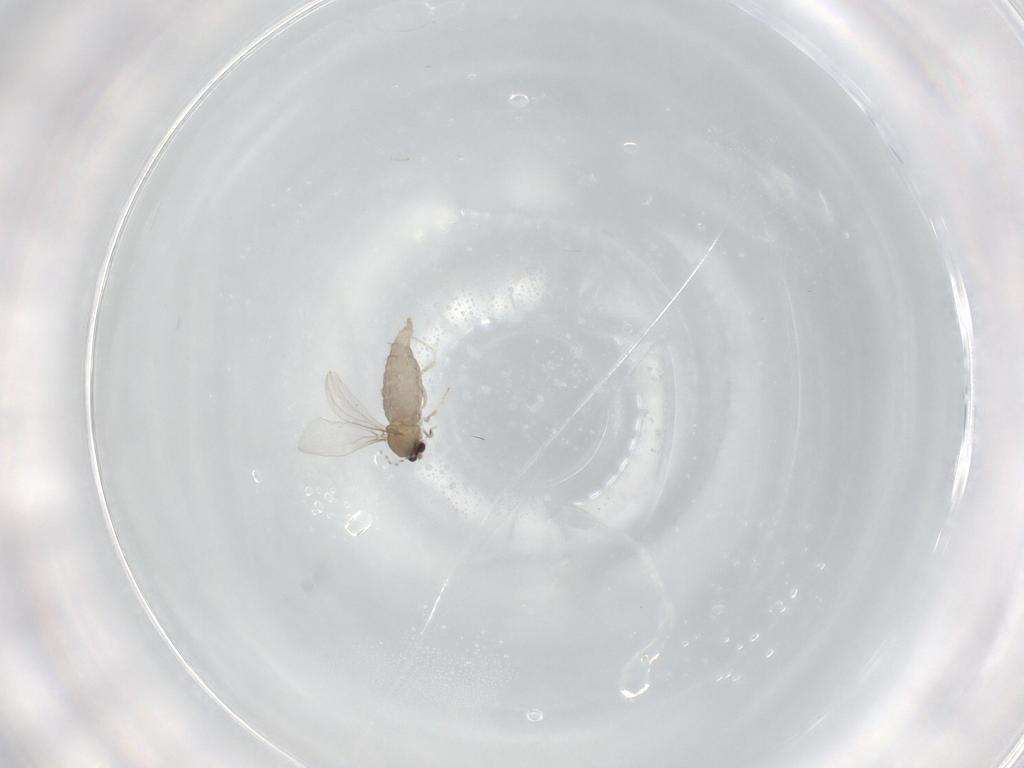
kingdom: Animalia
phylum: Arthropoda
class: Insecta
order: Diptera
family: Cecidomyiidae
